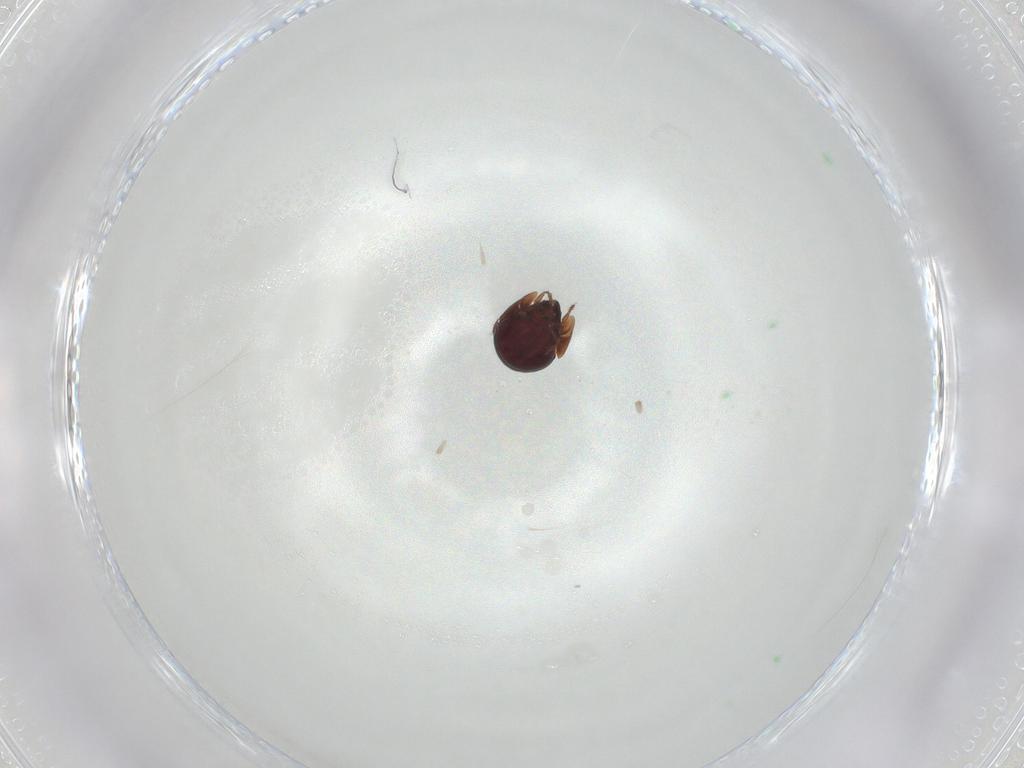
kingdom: Animalia
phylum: Arthropoda
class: Arachnida
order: Sarcoptiformes
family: Galumnidae
